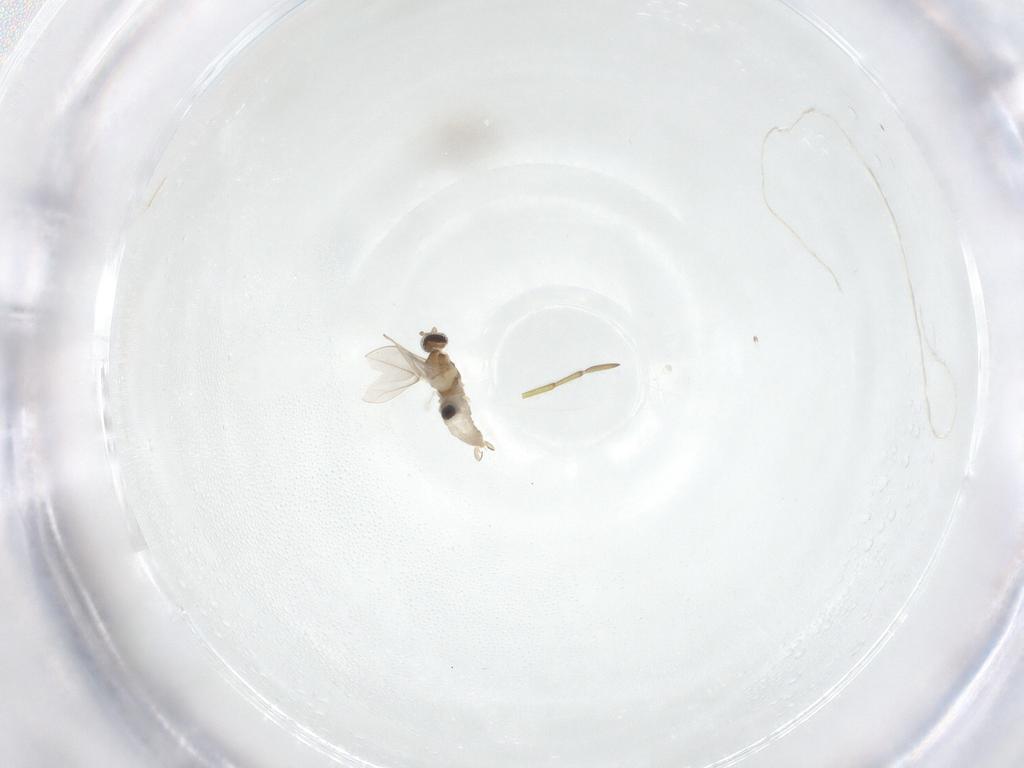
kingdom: Animalia
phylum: Arthropoda
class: Insecta
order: Diptera
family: Cecidomyiidae
